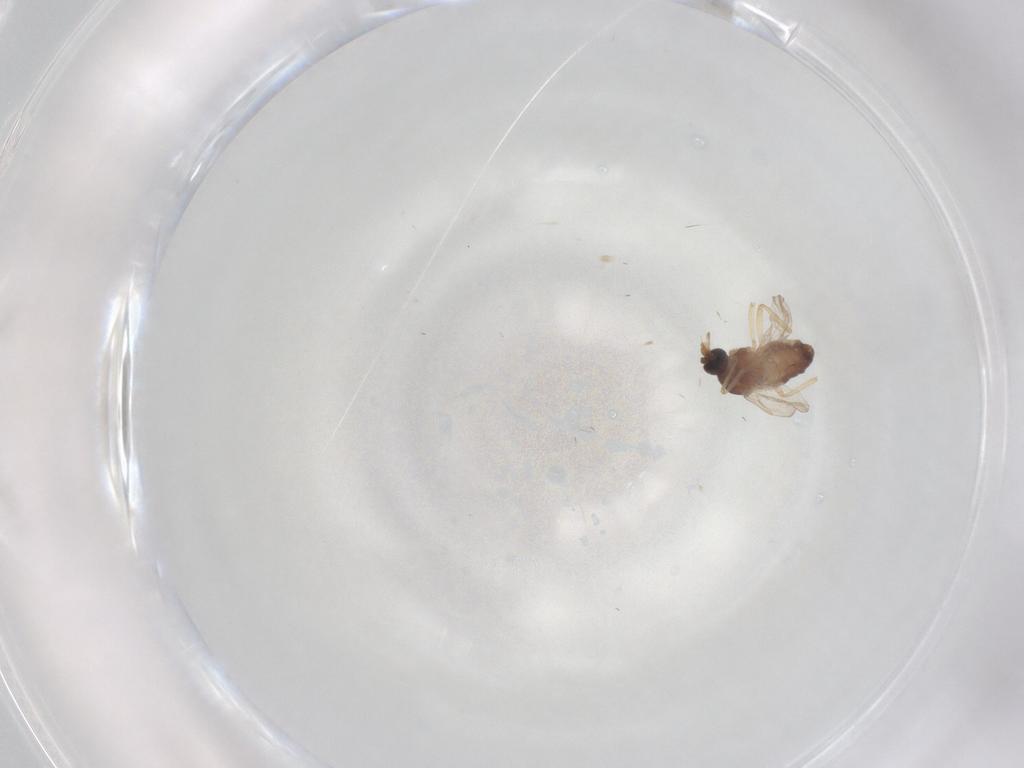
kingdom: Animalia
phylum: Arthropoda
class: Insecta
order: Diptera
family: Ceratopogonidae
